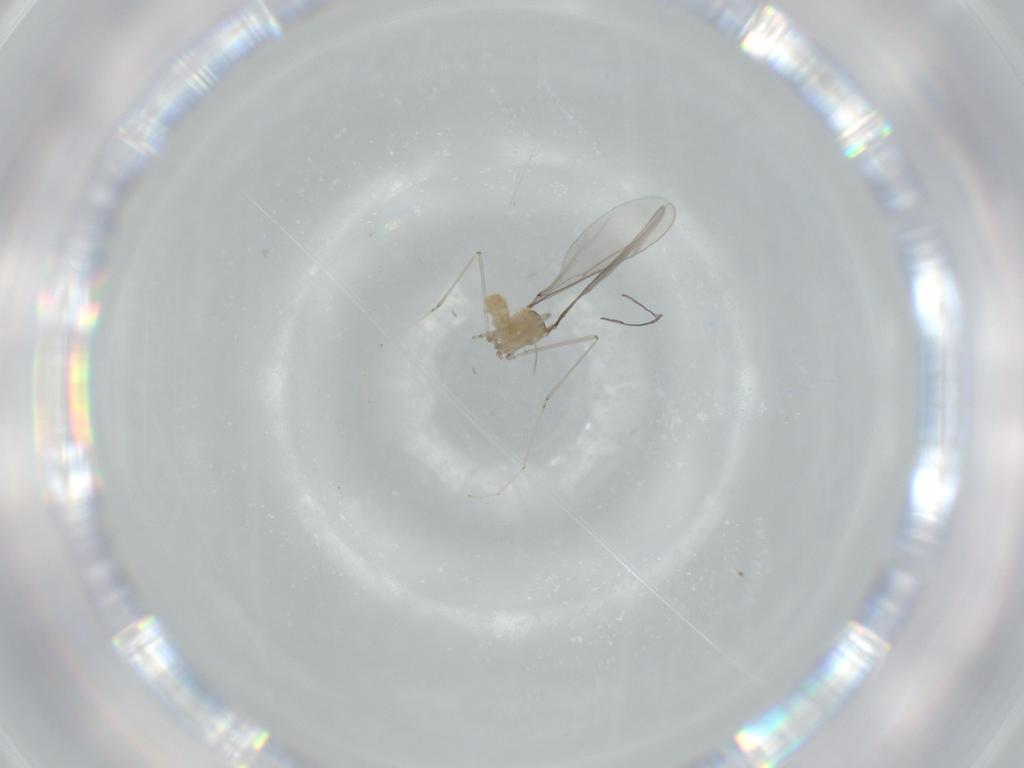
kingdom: Animalia
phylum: Arthropoda
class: Insecta
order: Diptera
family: Cecidomyiidae
